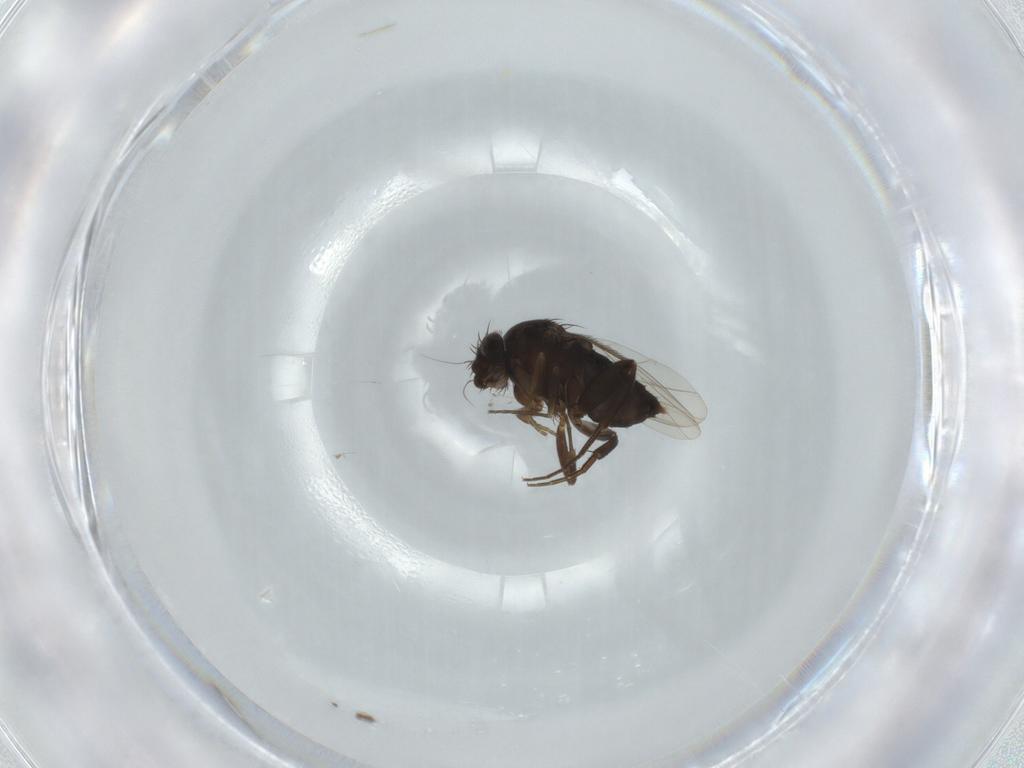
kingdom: Animalia
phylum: Arthropoda
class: Insecta
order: Diptera
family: Phoridae
